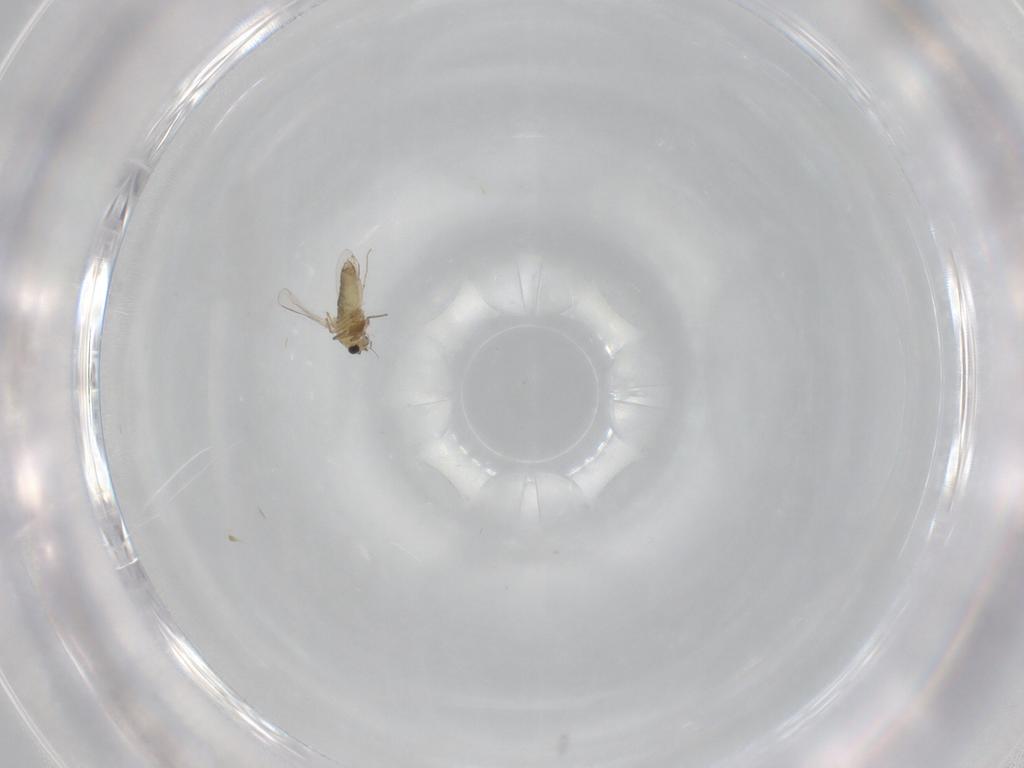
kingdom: Animalia
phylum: Arthropoda
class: Insecta
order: Diptera
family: Chironomidae
